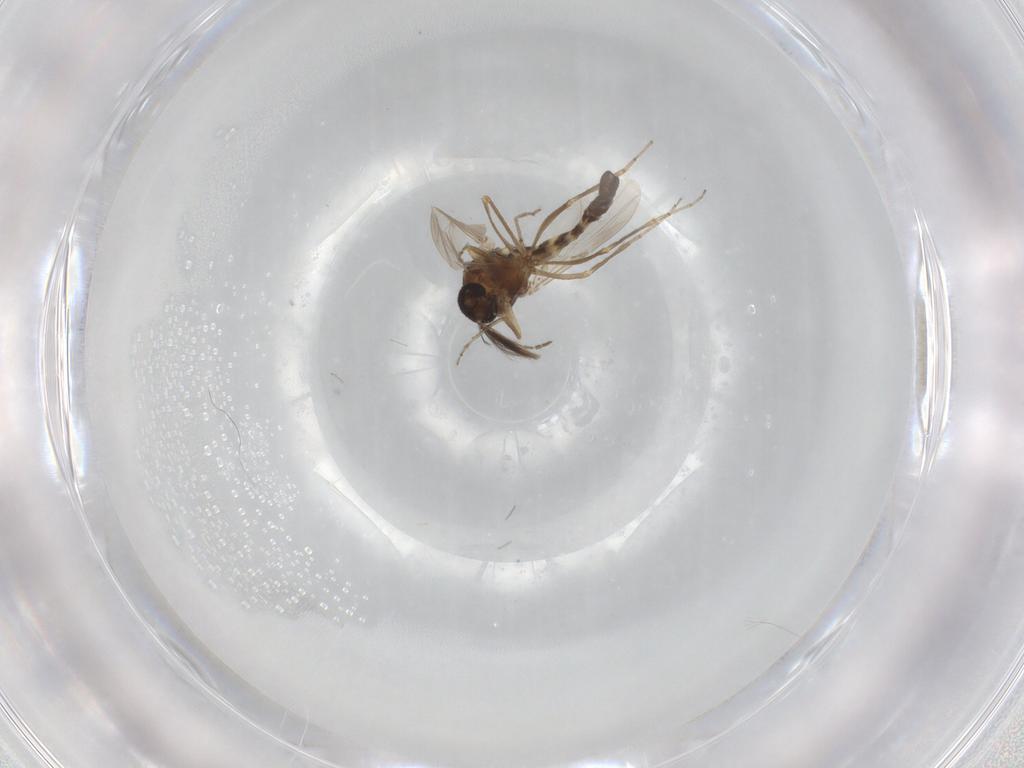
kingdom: Animalia
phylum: Arthropoda
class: Insecta
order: Diptera
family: Ceratopogonidae
